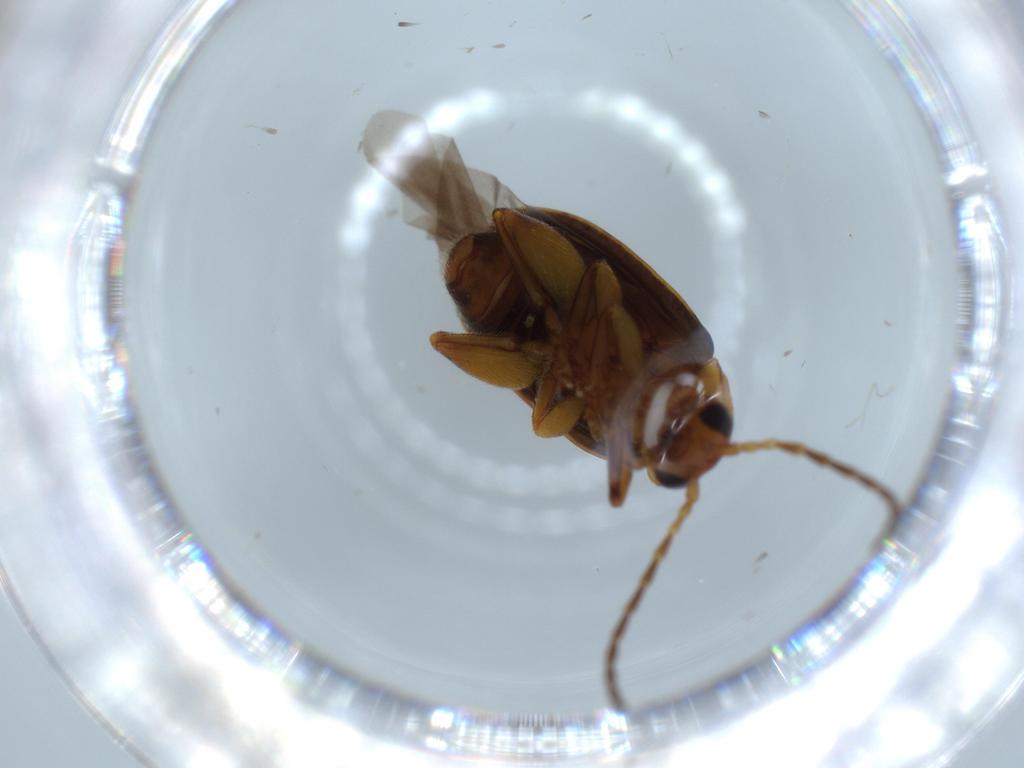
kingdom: Animalia
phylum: Arthropoda
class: Insecta
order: Coleoptera
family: Chrysomelidae
